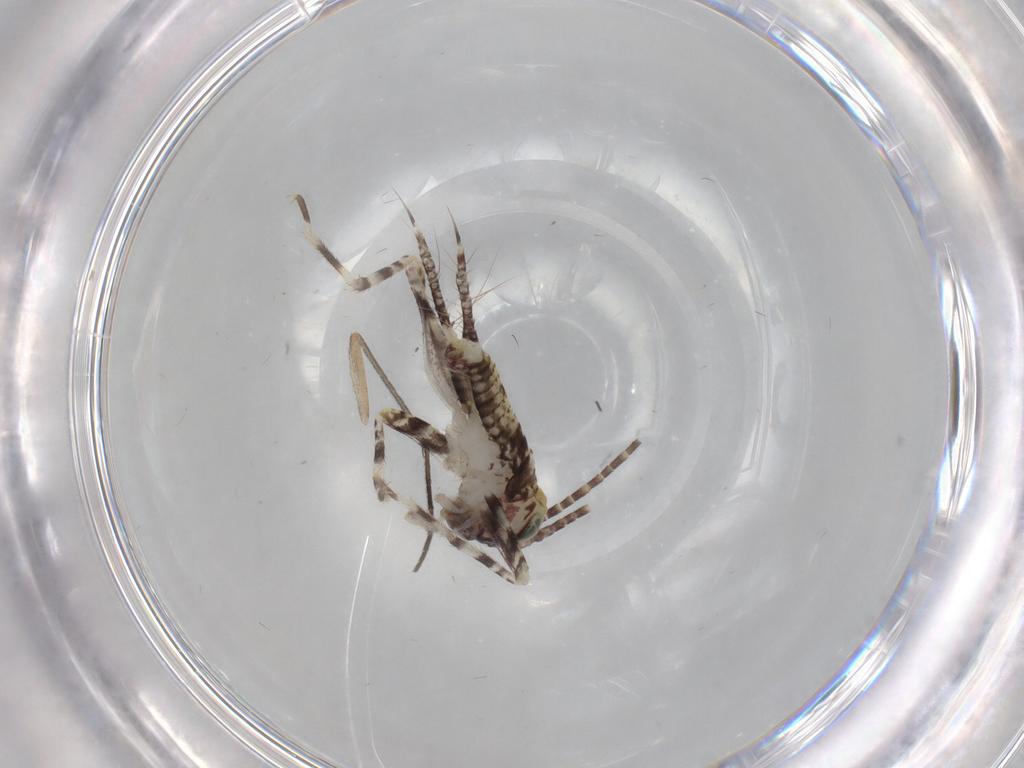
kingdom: Animalia
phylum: Arthropoda
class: Insecta
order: Orthoptera
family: Gryllidae
